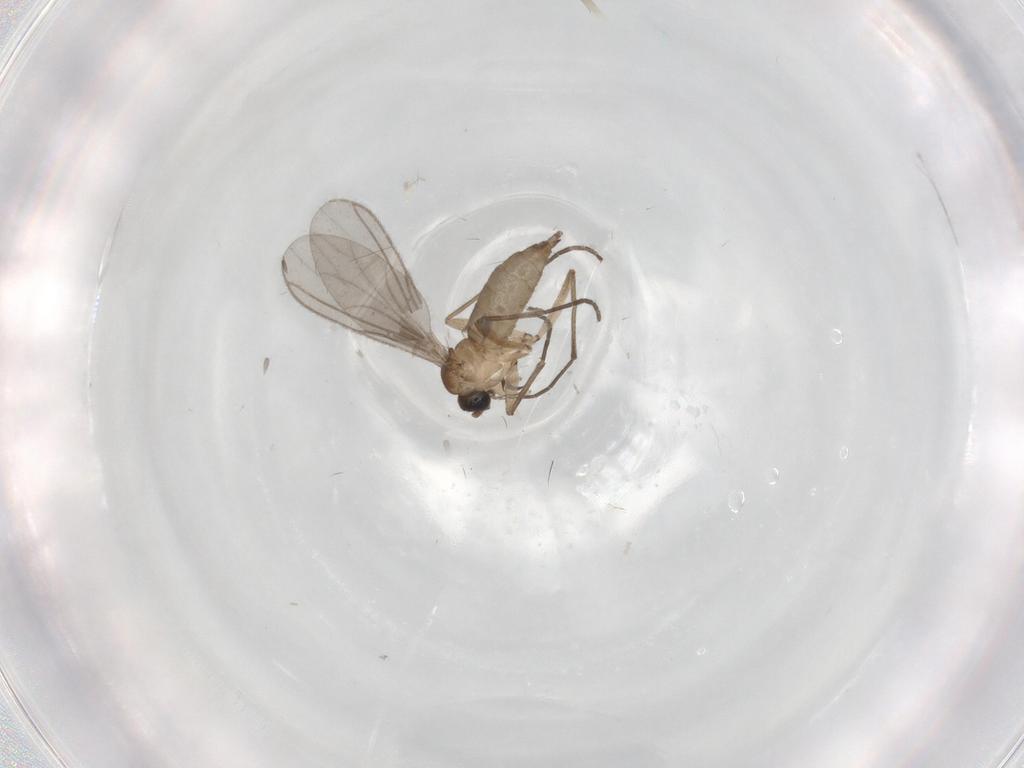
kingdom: Animalia
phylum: Arthropoda
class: Insecta
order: Diptera
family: Sciaridae
